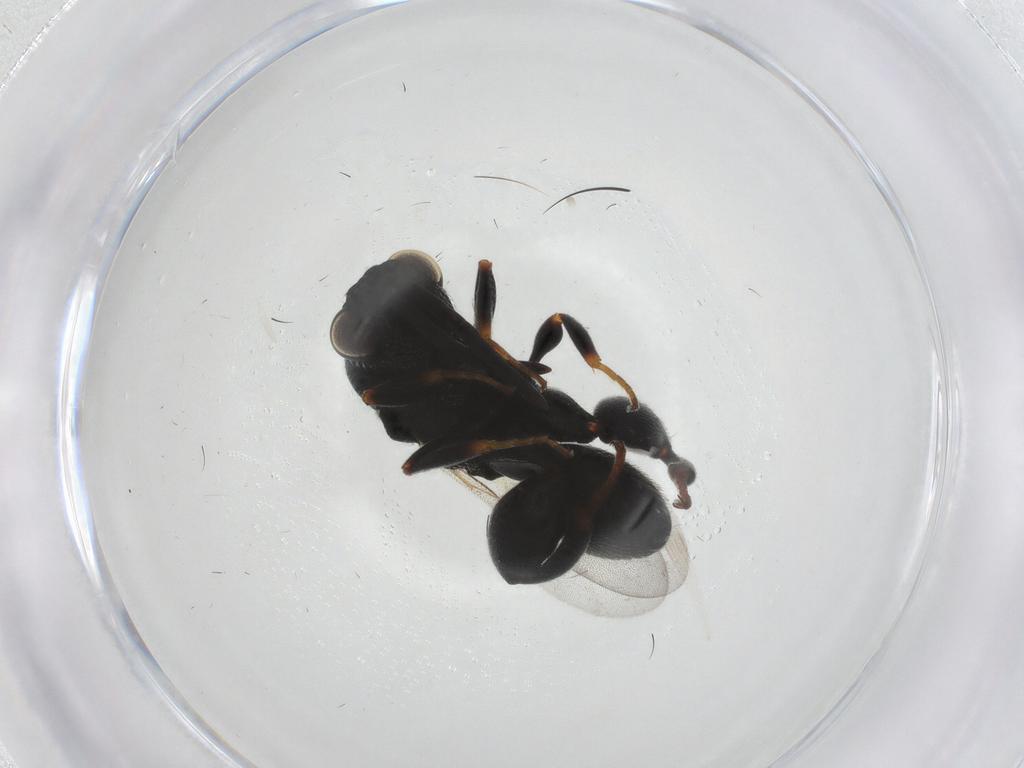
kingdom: Animalia
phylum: Arthropoda
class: Insecta
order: Hymenoptera
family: Chalcididae
